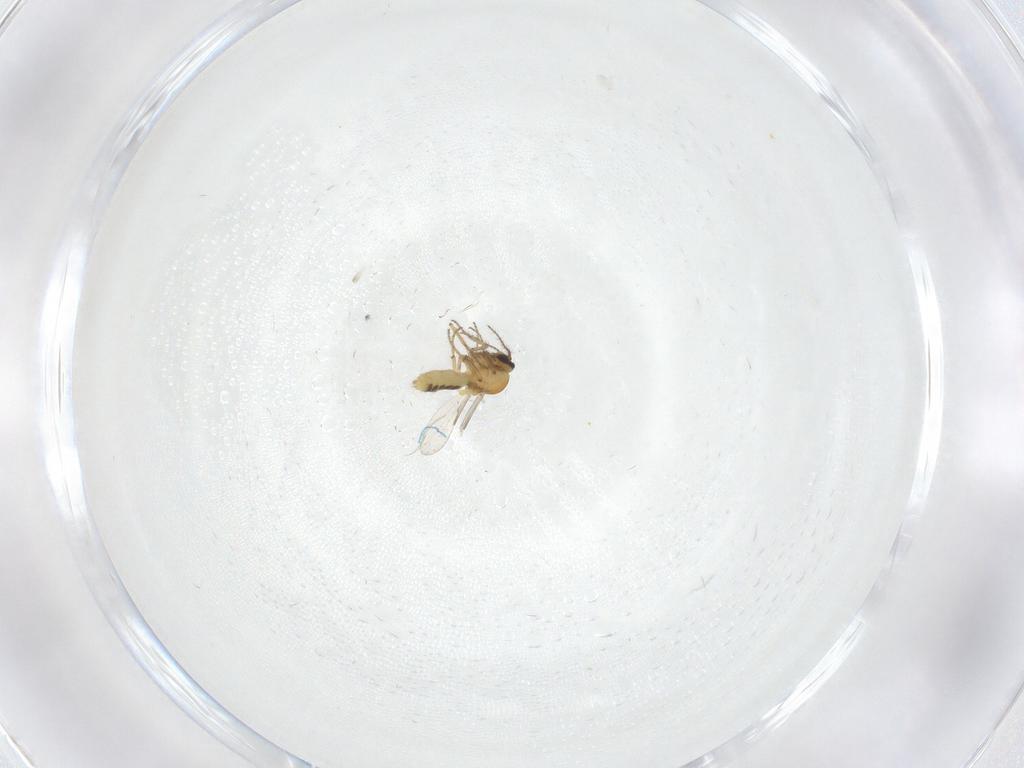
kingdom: Animalia
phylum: Arthropoda
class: Insecta
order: Diptera
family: Ceratopogonidae
